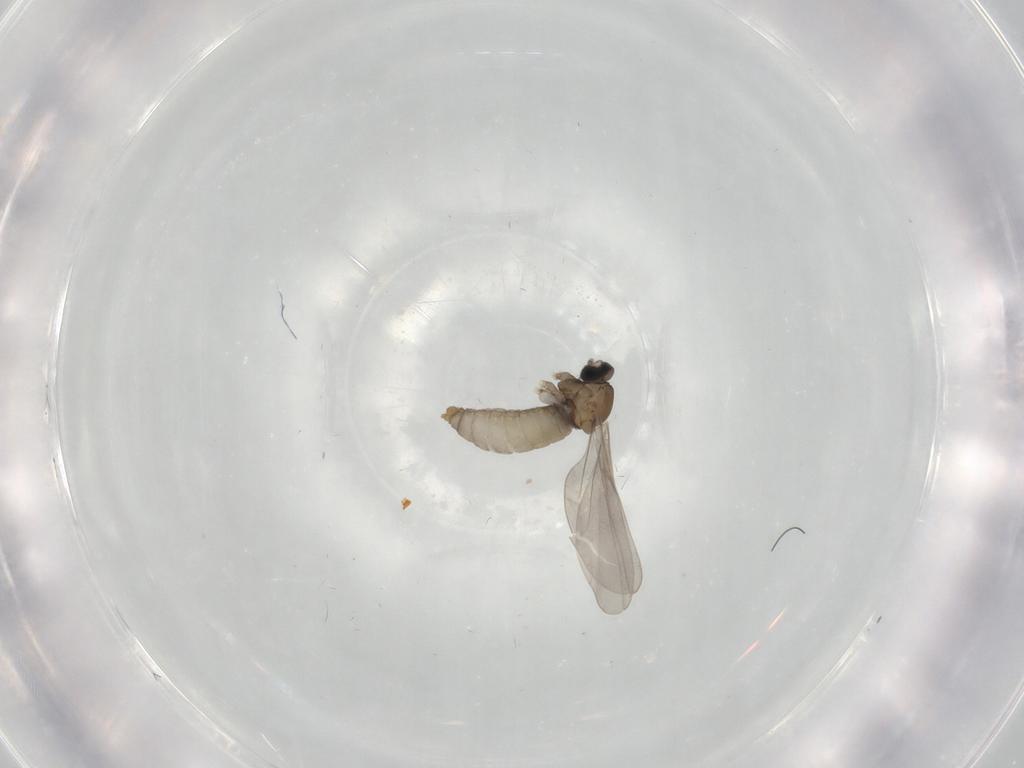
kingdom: Animalia
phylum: Arthropoda
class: Insecta
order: Diptera
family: Cecidomyiidae
